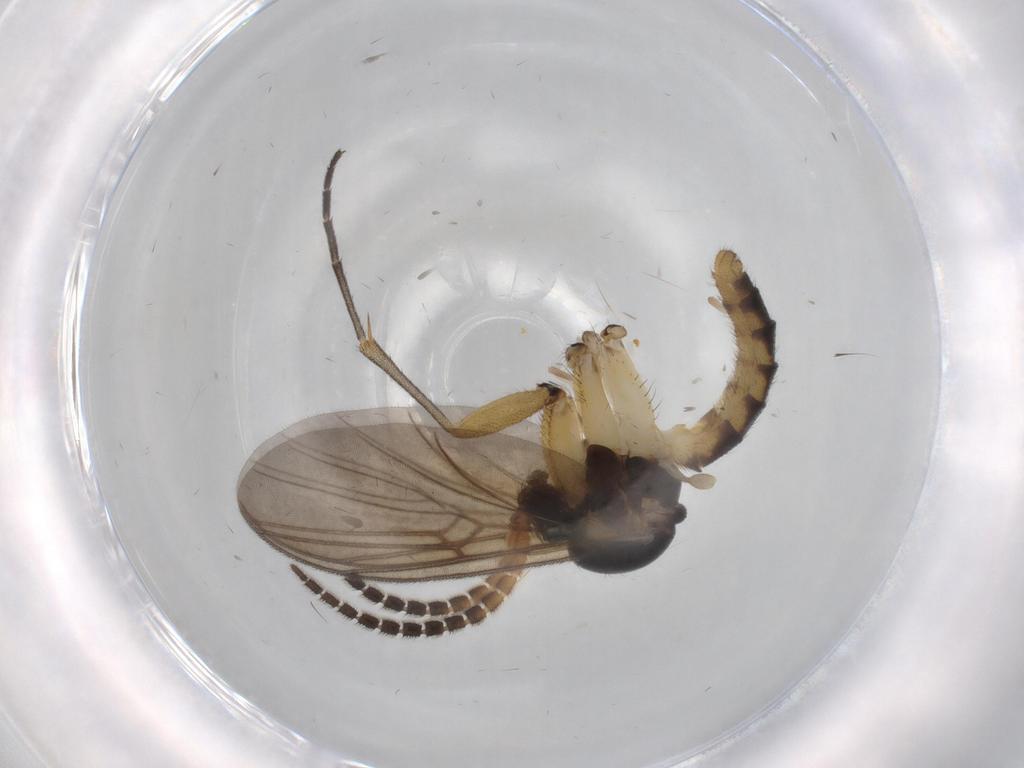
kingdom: Animalia
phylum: Arthropoda
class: Insecta
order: Diptera
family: Cecidomyiidae
